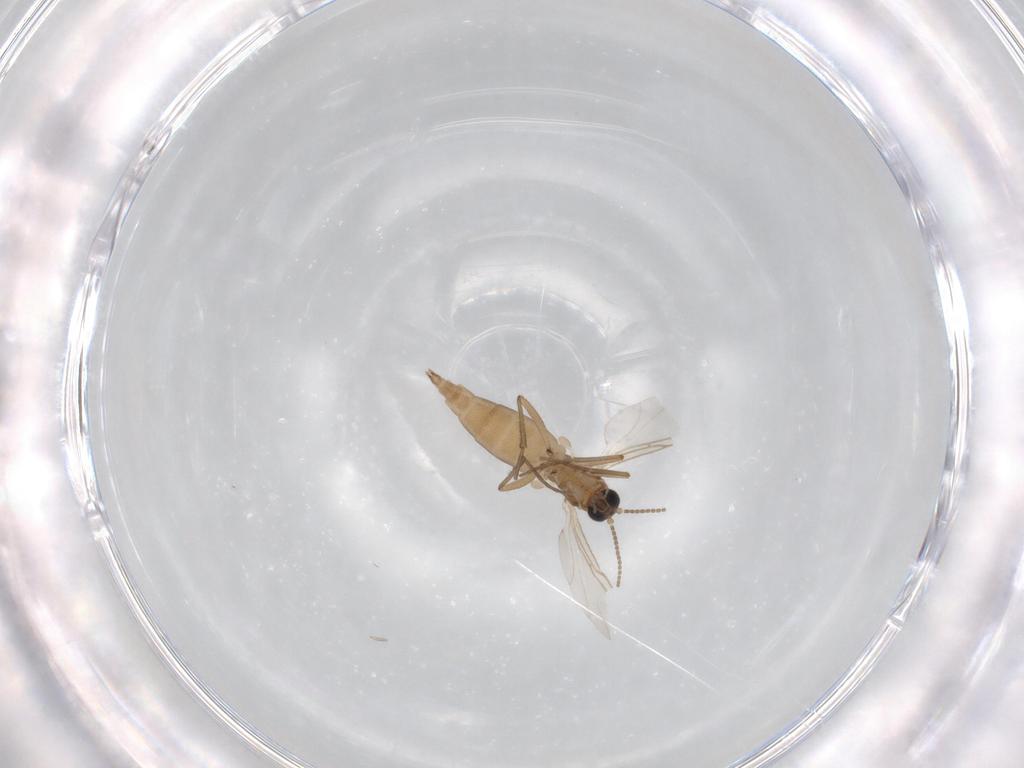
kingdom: Animalia
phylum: Arthropoda
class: Insecta
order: Diptera
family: Sciaridae
